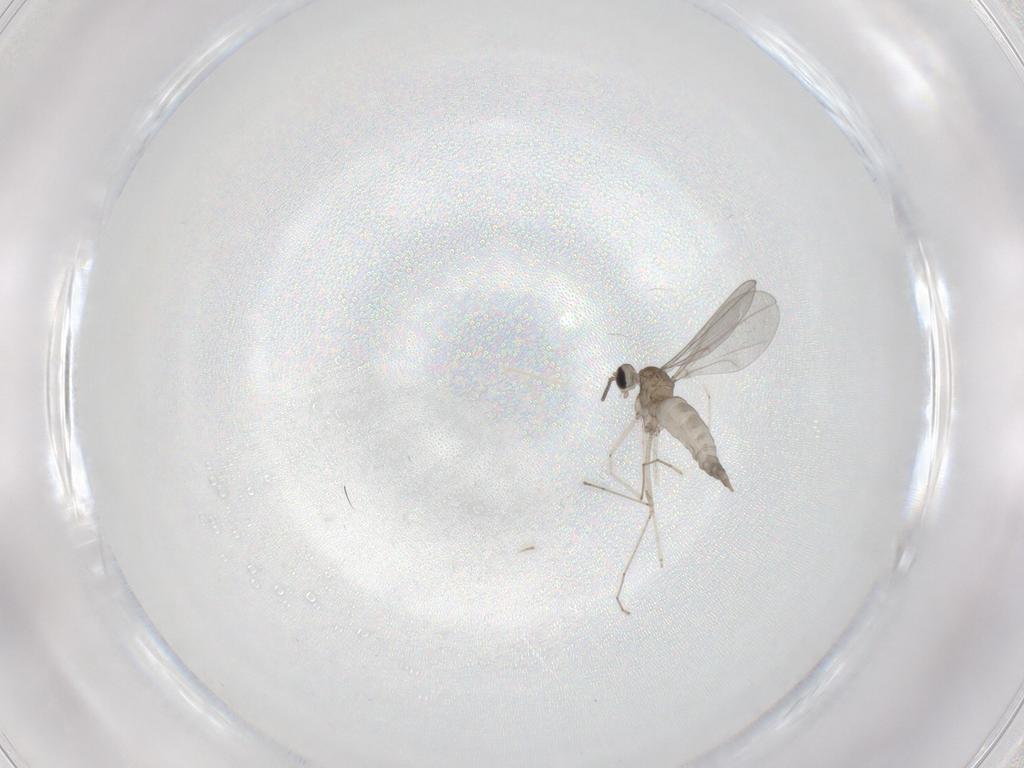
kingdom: Animalia
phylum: Arthropoda
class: Insecta
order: Diptera
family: Cecidomyiidae
